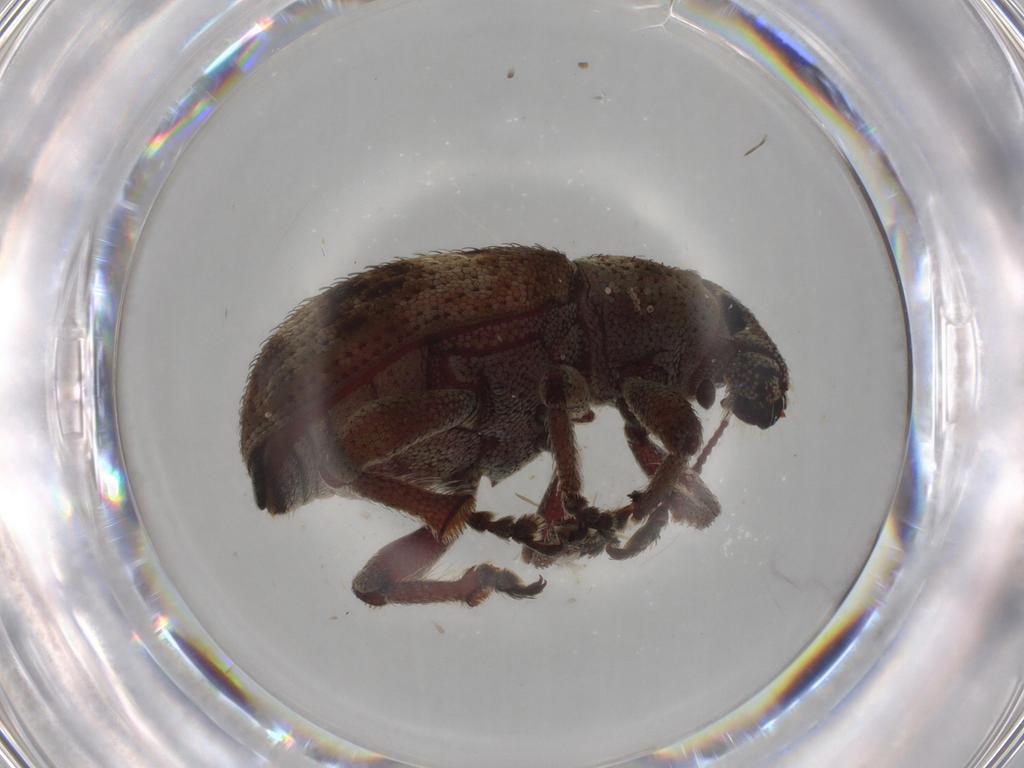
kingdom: Animalia
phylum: Arthropoda
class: Insecta
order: Coleoptera
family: Curculionidae
